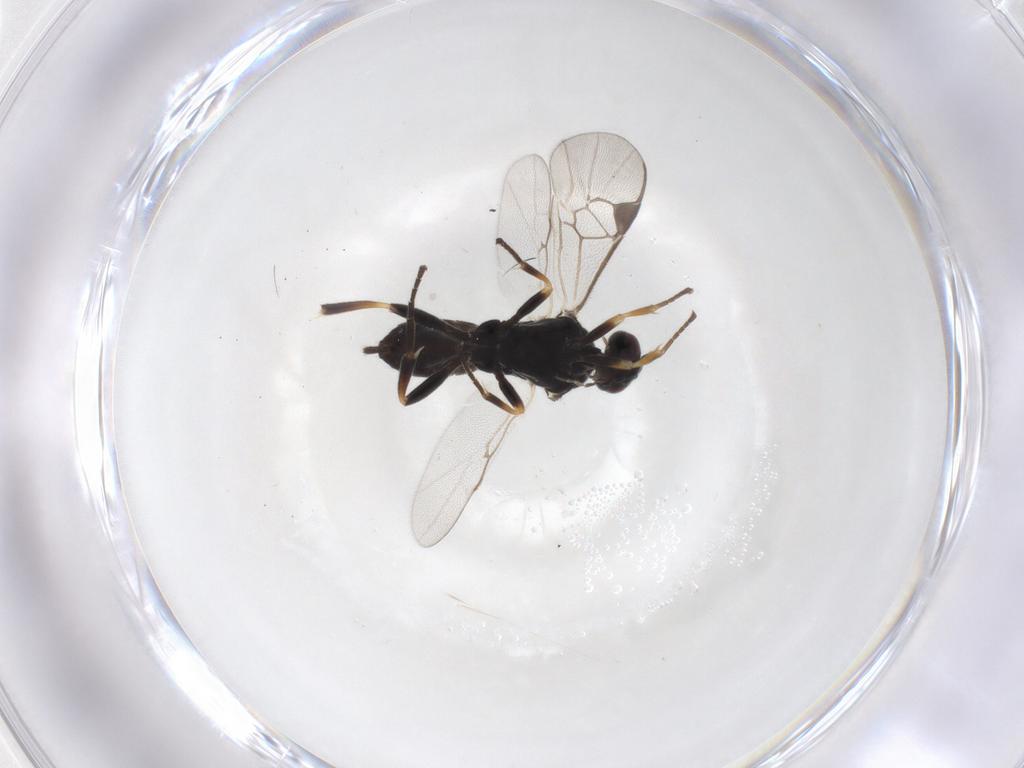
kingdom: Animalia
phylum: Arthropoda
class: Insecta
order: Hymenoptera
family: Braconidae
